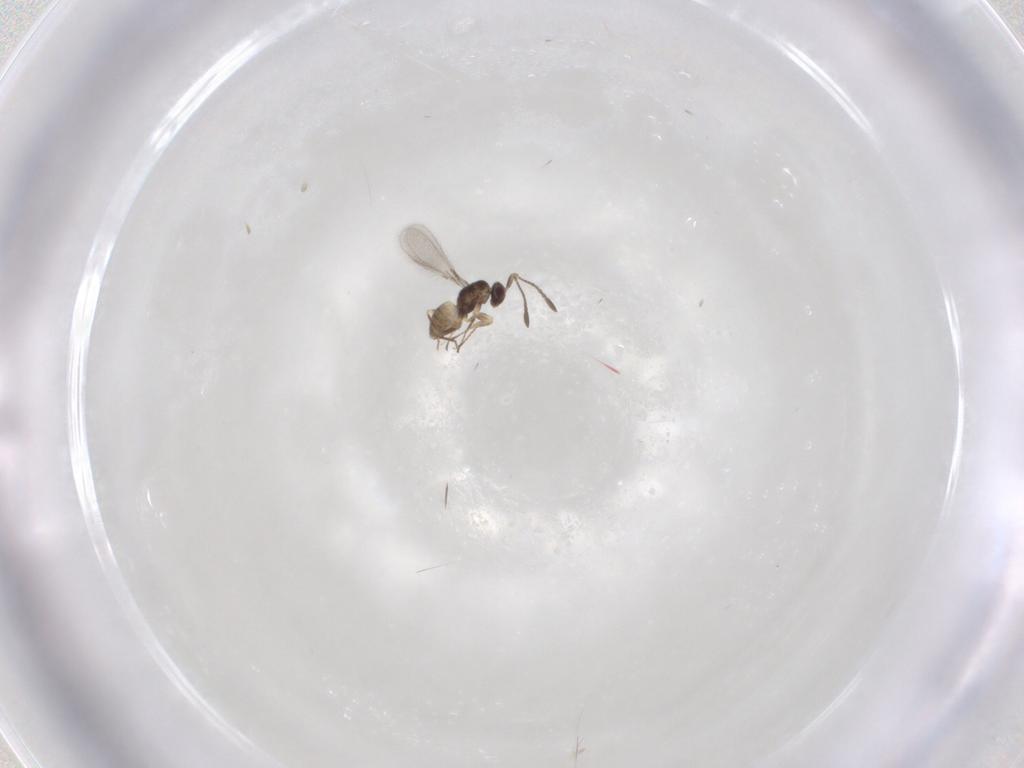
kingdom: Animalia
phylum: Arthropoda
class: Insecta
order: Hymenoptera
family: Mymaridae
